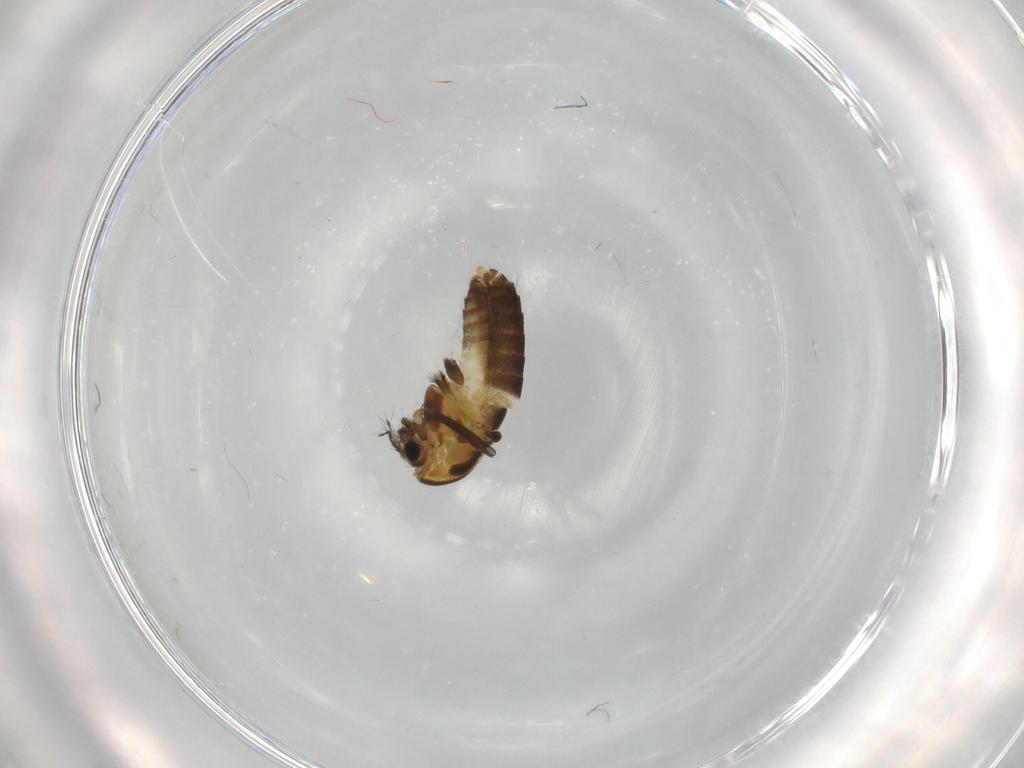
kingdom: Animalia
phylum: Arthropoda
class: Insecta
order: Diptera
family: Chironomidae
